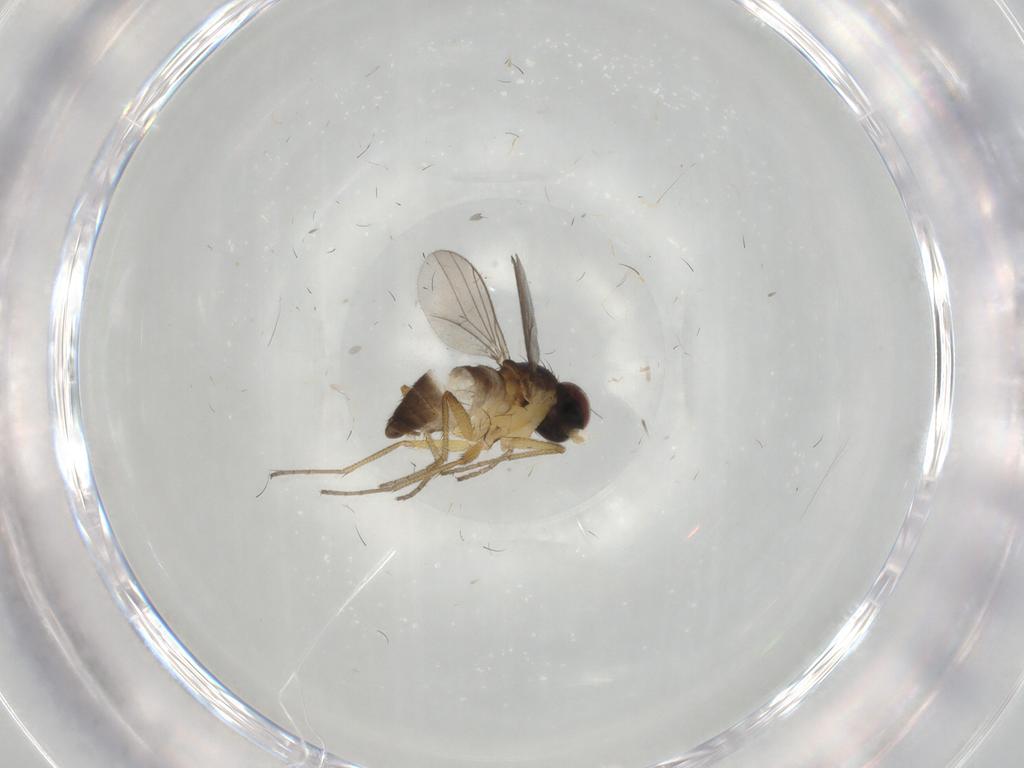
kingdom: Animalia
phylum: Arthropoda
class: Insecta
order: Diptera
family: Dolichopodidae
